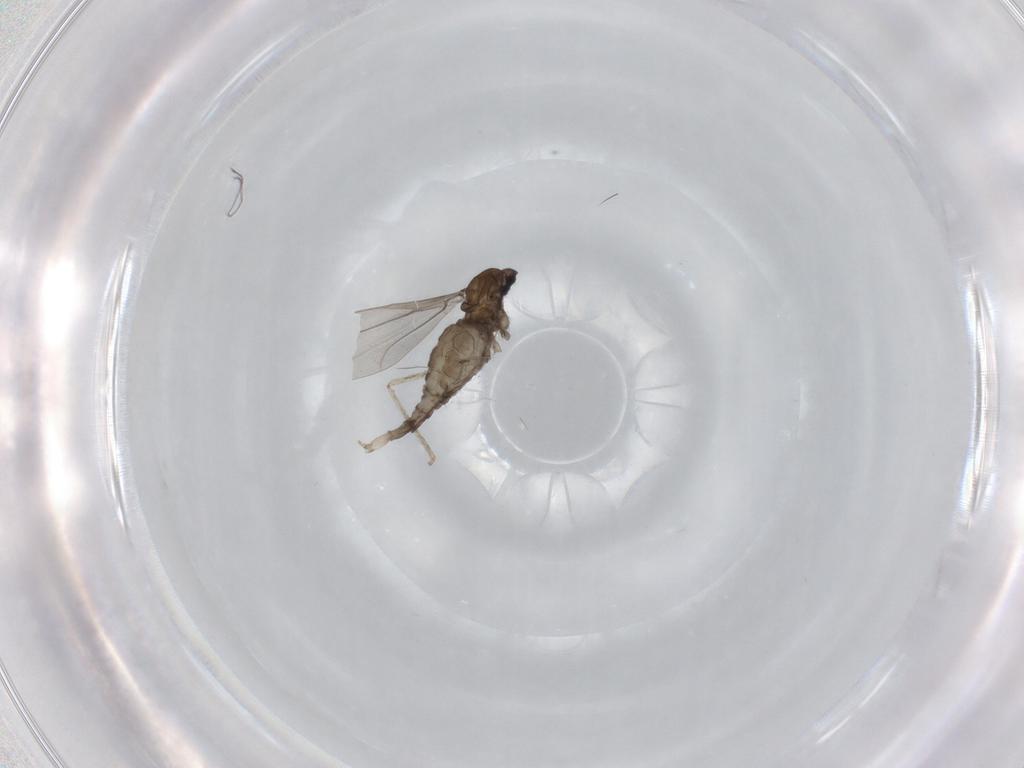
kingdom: Animalia
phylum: Arthropoda
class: Insecta
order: Diptera
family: Cecidomyiidae
